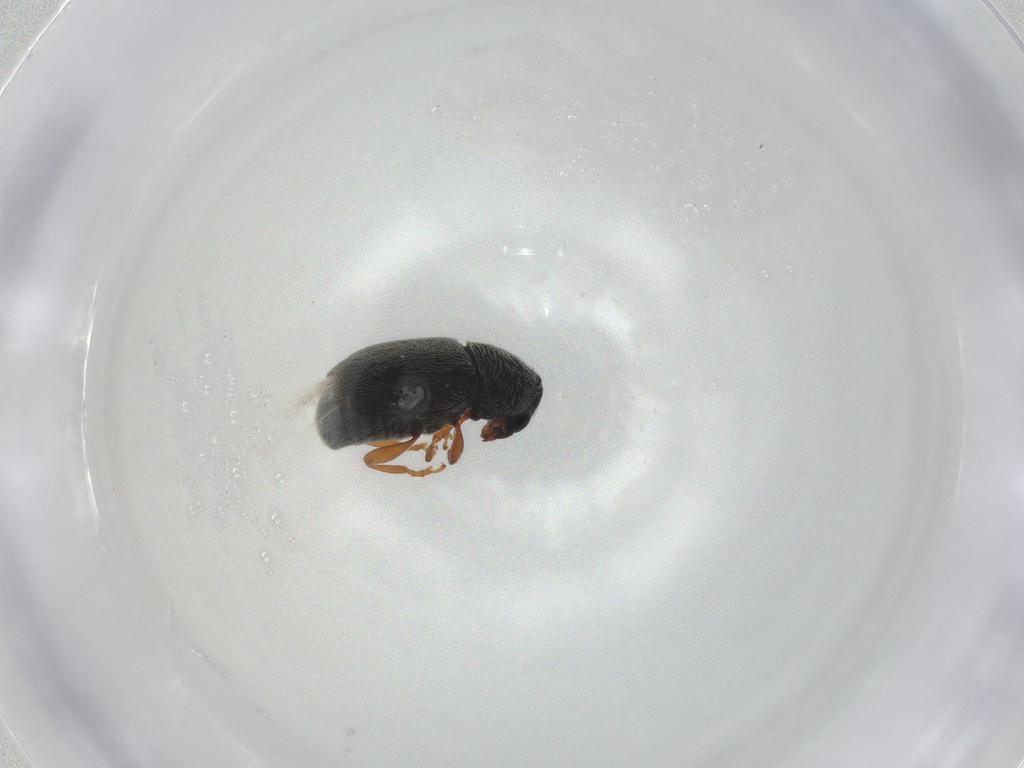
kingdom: Animalia
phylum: Arthropoda
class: Insecta
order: Coleoptera
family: Anthribidae
